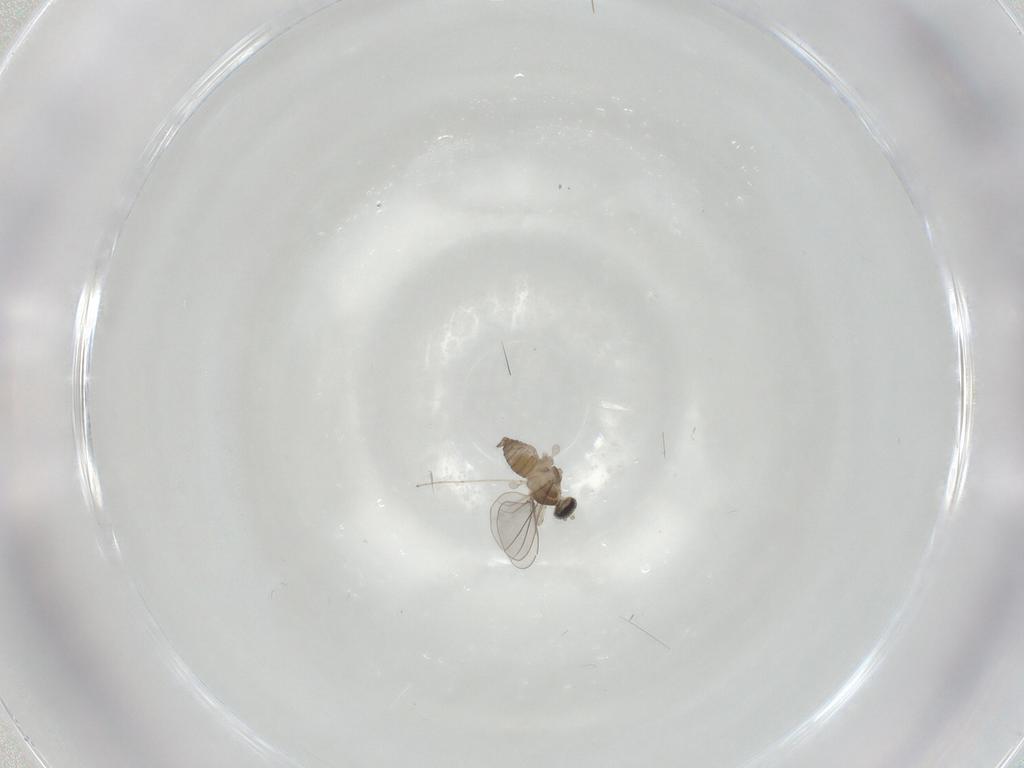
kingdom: Animalia
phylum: Arthropoda
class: Insecta
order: Diptera
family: Cecidomyiidae
